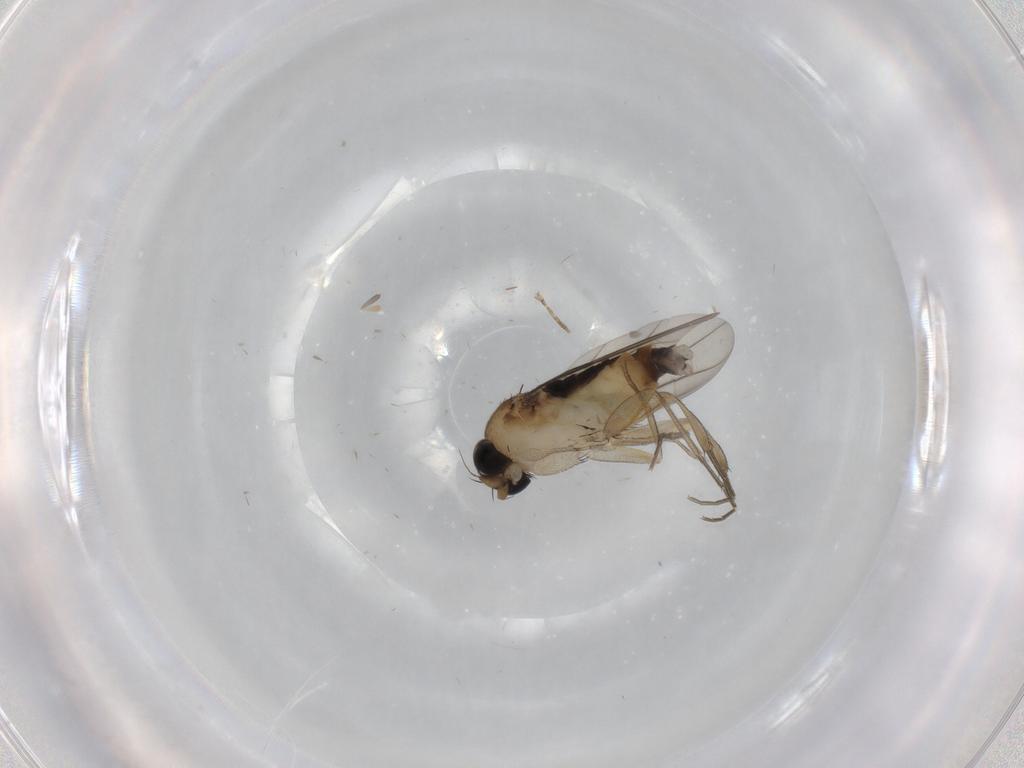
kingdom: Animalia
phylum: Arthropoda
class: Insecta
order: Diptera
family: Phoridae
